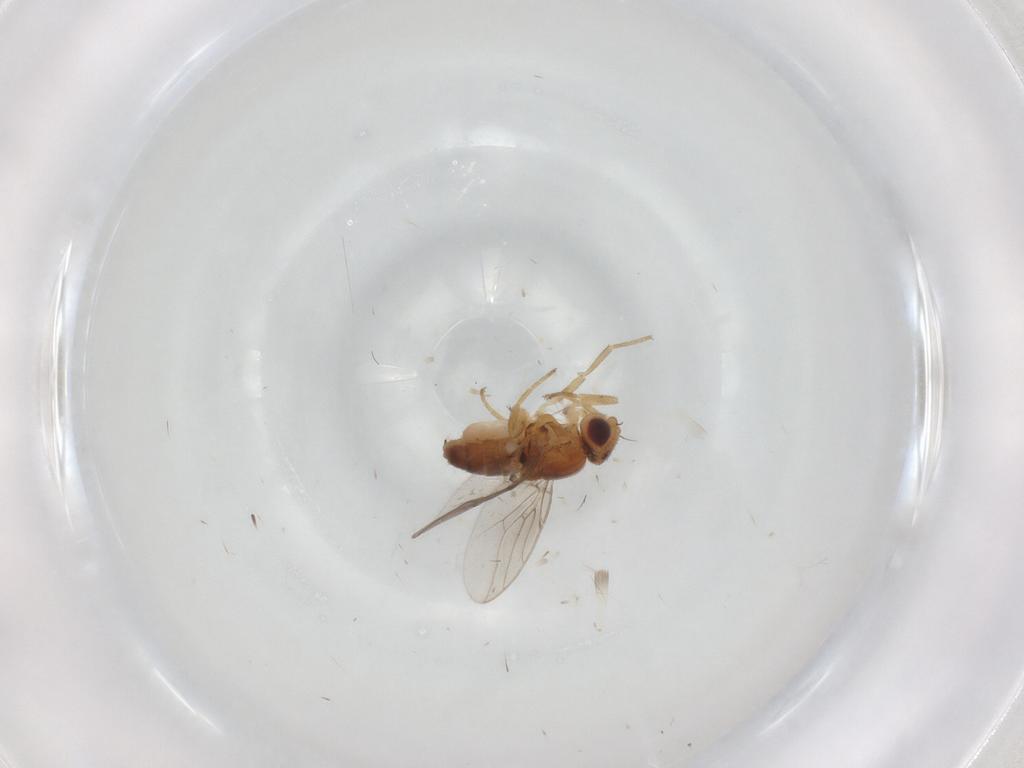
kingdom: Animalia
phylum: Arthropoda
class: Insecta
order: Diptera
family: Chloropidae
